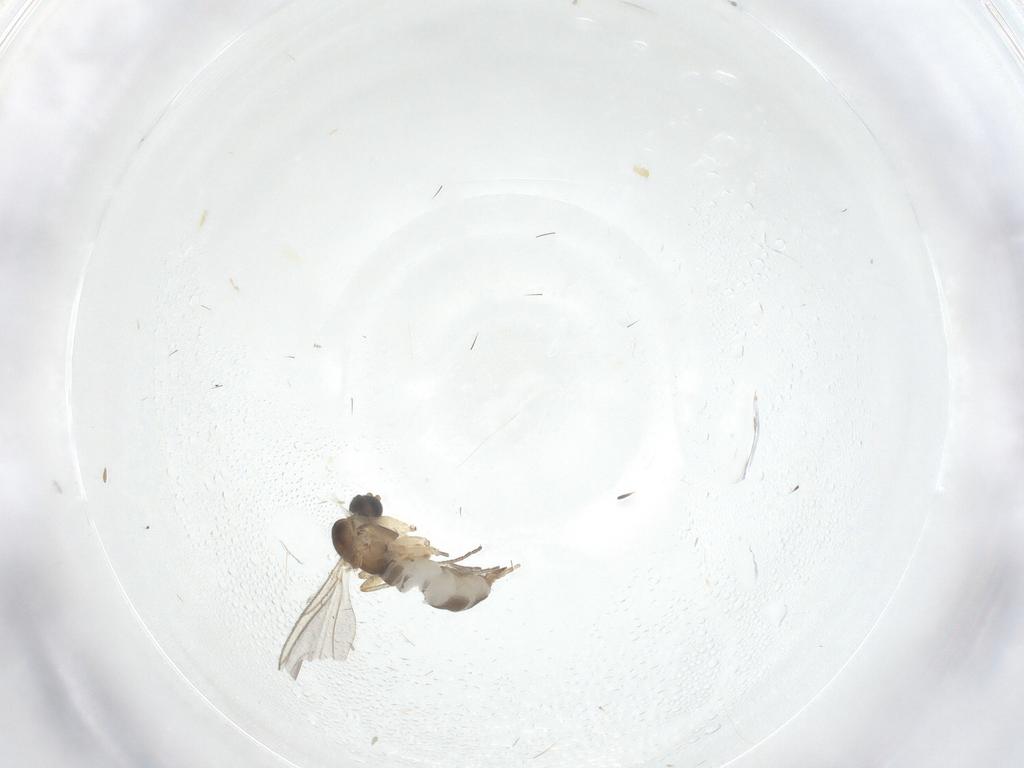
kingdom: Animalia
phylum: Arthropoda
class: Insecta
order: Diptera
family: Sciaridae
